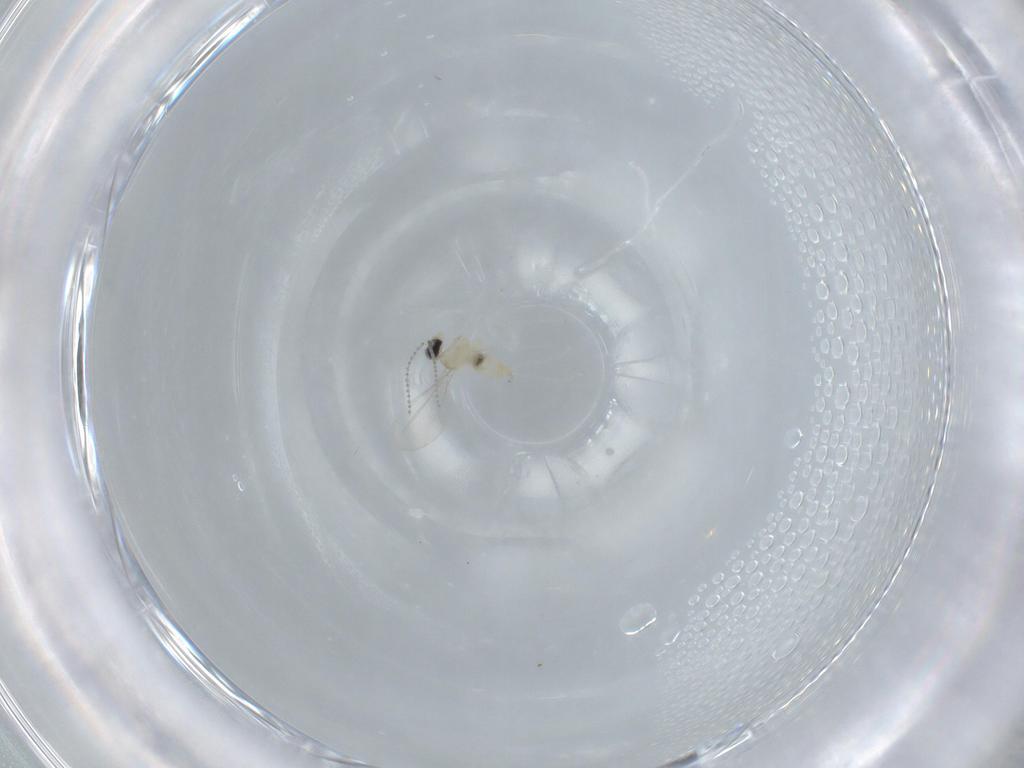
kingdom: Animalia
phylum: Arthropoda
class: Insecta
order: Diptera
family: Cecidomyiidae
